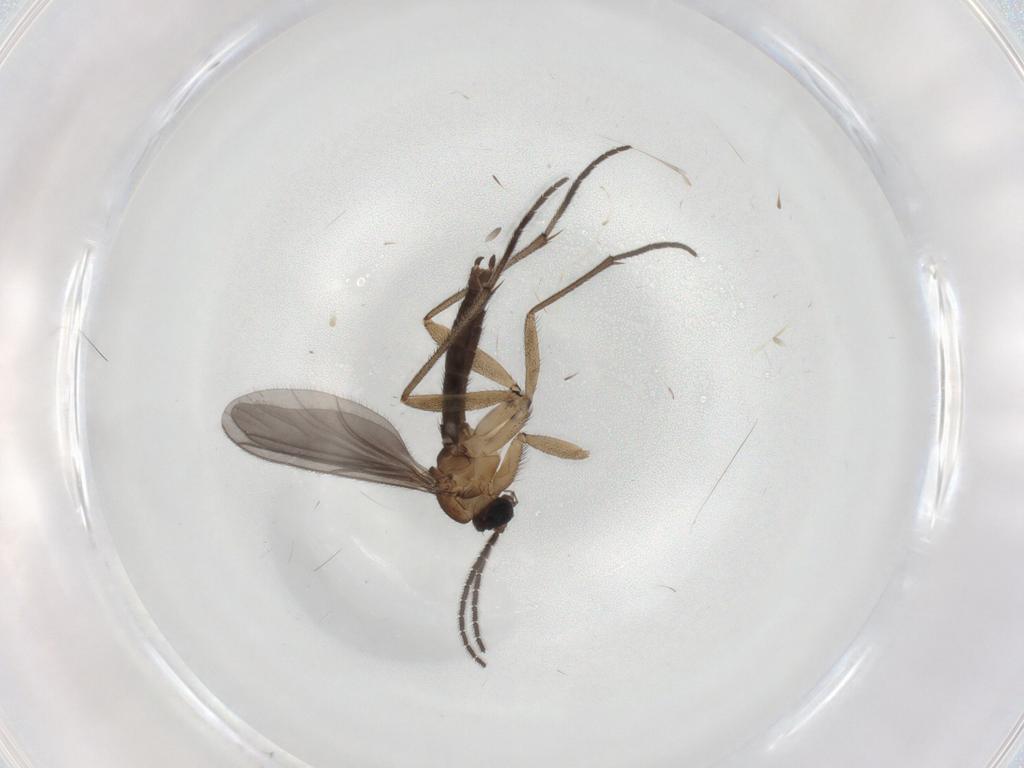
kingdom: Animalia
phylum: Arthropoda
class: Insecta
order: Diptera
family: Sciaridae
